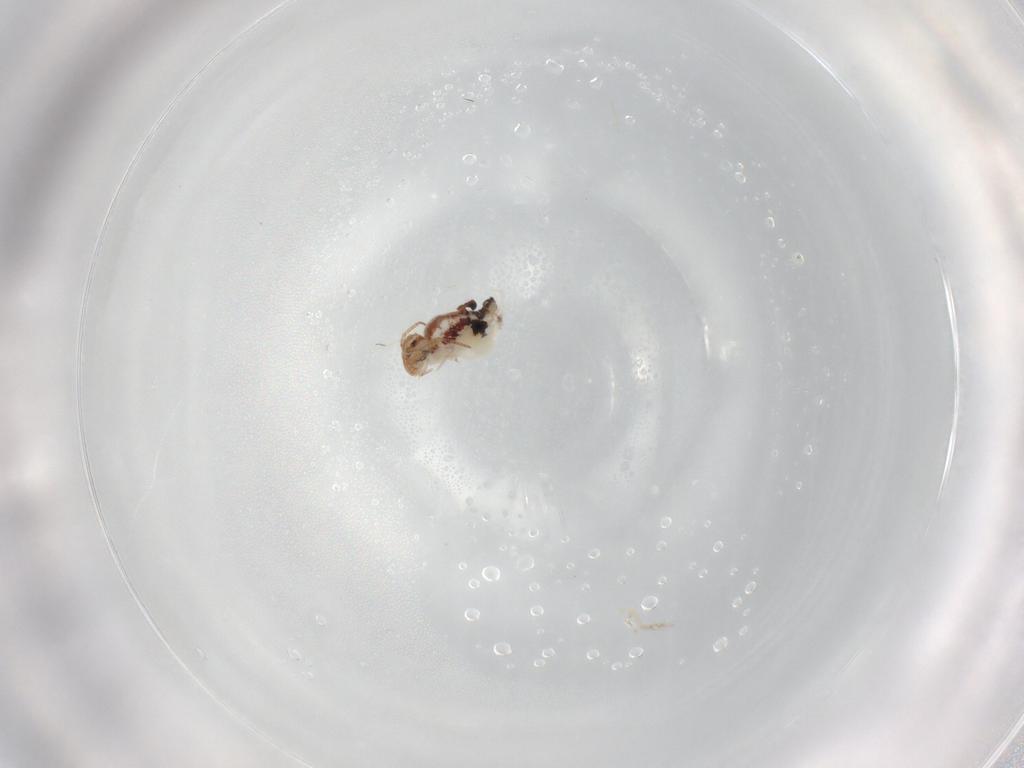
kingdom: Animalia
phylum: Arthropoda
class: Collembola
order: Symphypleona
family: Bourletiellidae
